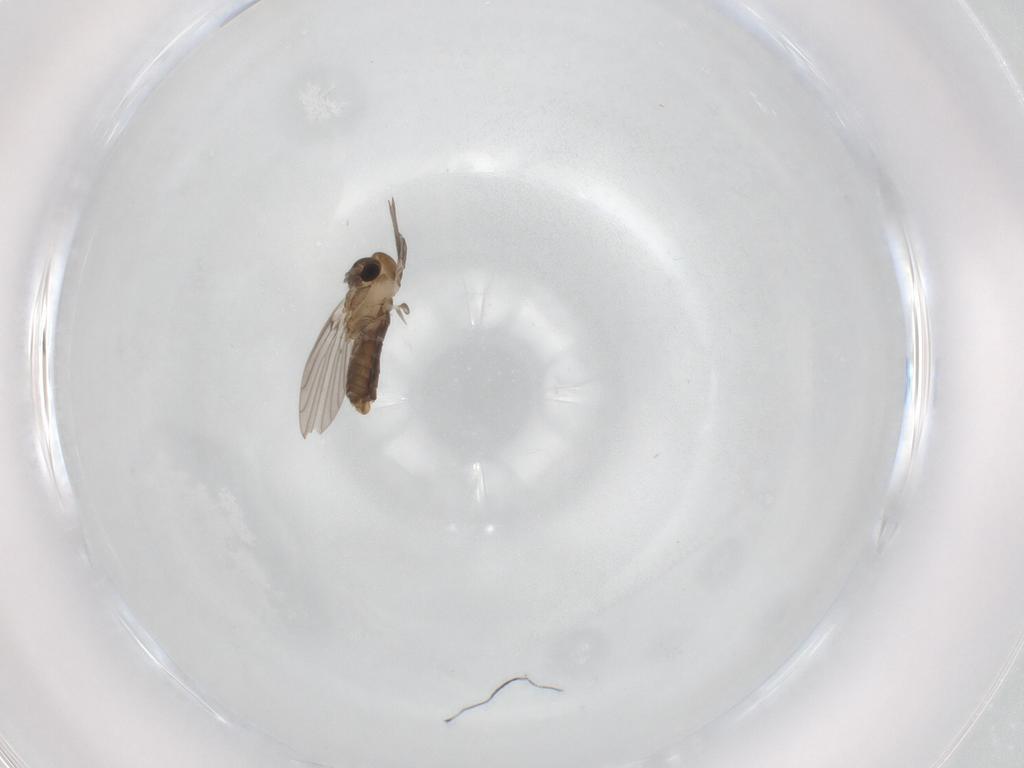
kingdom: Animalia
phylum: Arthropoda
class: Insecta
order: Diptera
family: Psychodidae
